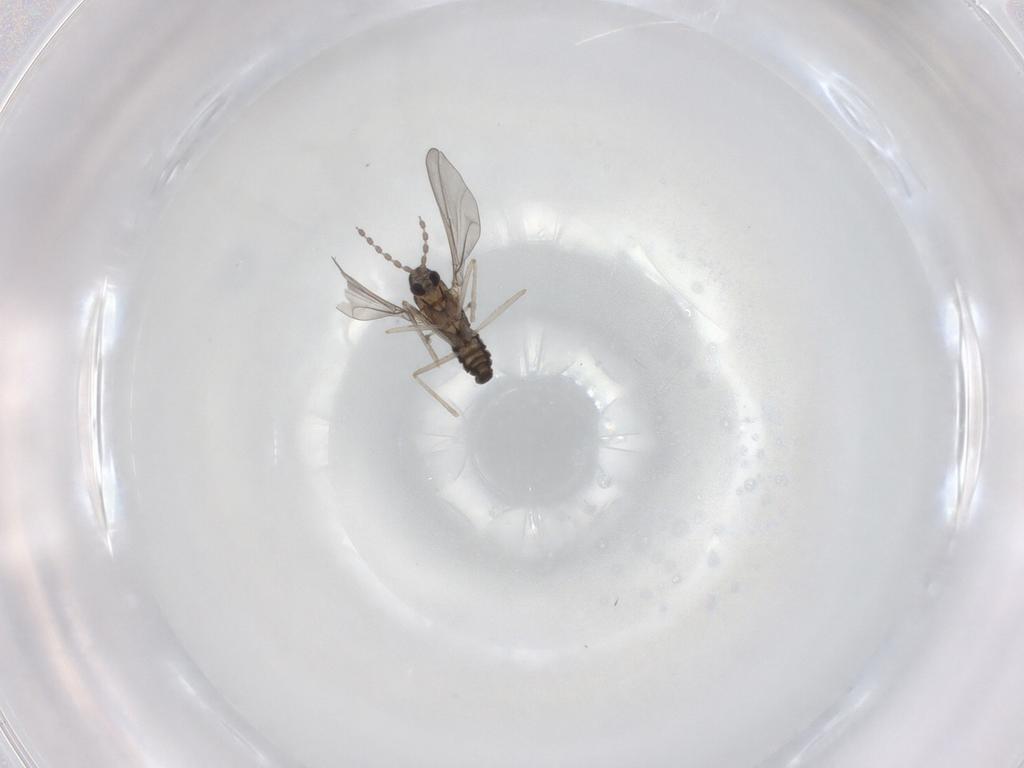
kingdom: Animalia
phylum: Arthropoda
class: Insecta
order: Diptera
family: Cecidomyiidae
